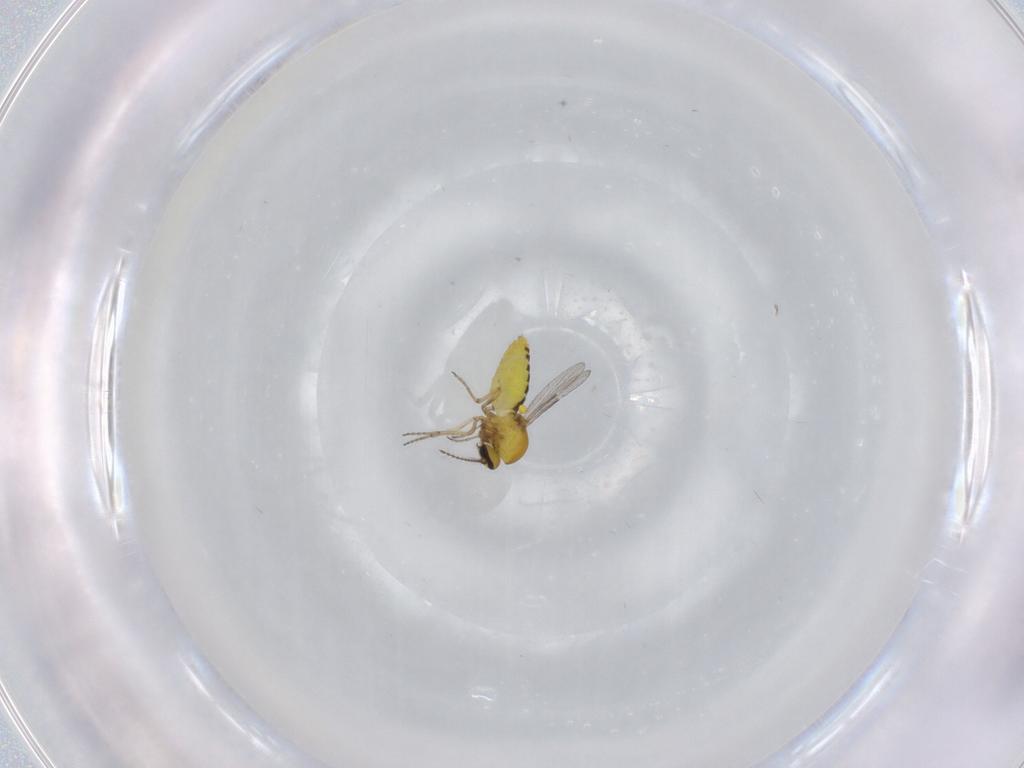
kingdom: Animalia
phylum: Arthropoda
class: Insecta
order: Diptera
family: Ceratopogonidae
